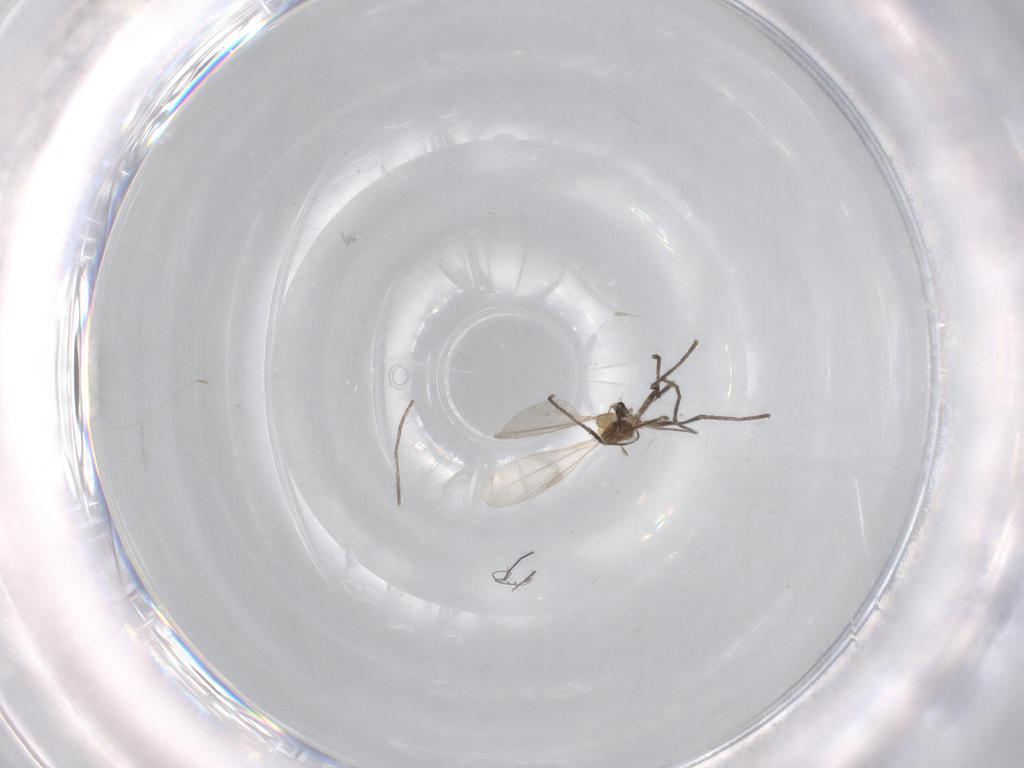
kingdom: Animalia
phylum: Arthropoda
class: Insecta
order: Diptera
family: Cecidomyiidae
